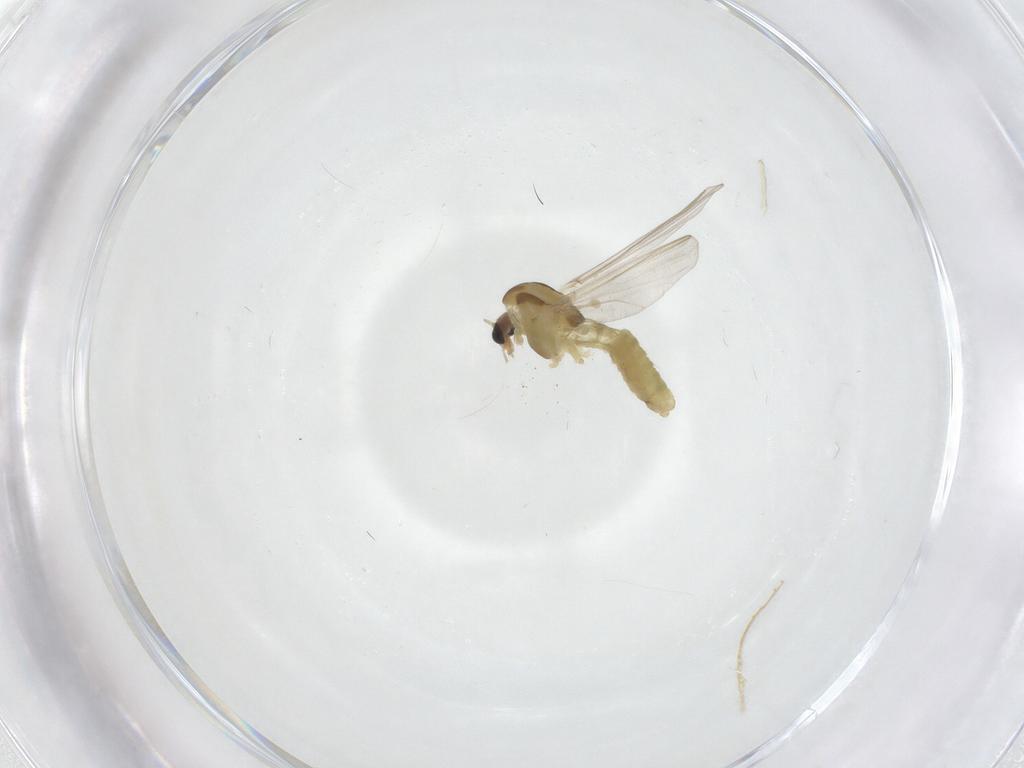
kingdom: Animalia
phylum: Arthropoda
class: Insecta
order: Diptera
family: Chironomidae
